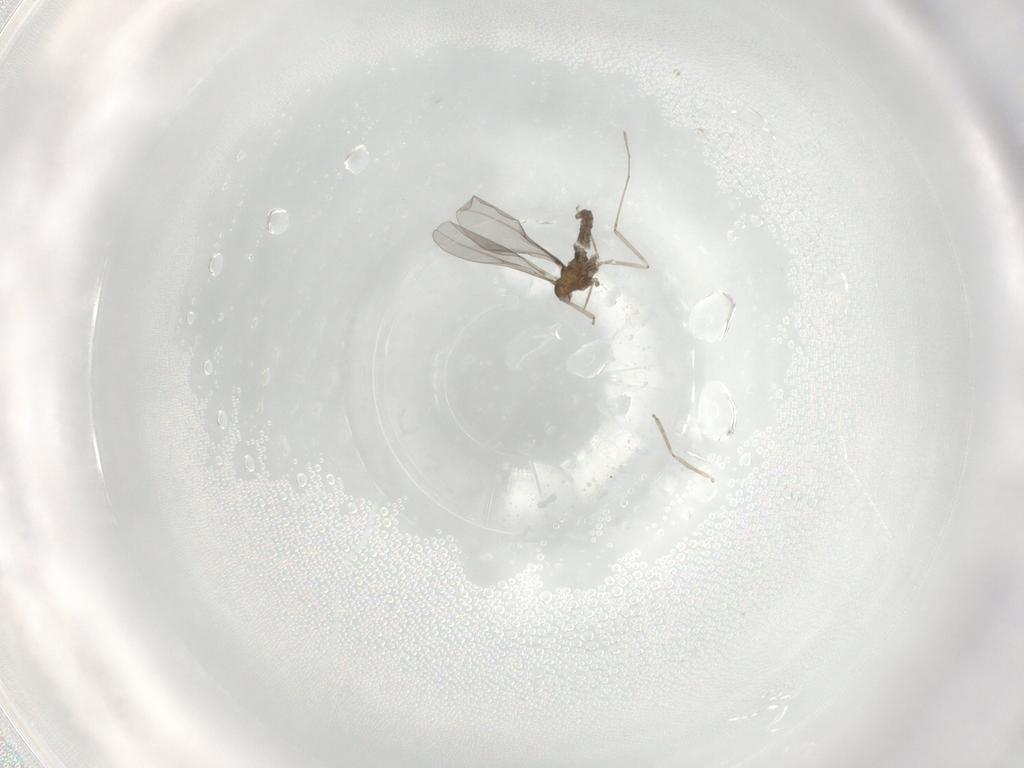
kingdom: Animalia
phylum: Arthropoda
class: Insecta
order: Diptera
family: Cecidomyiidae
